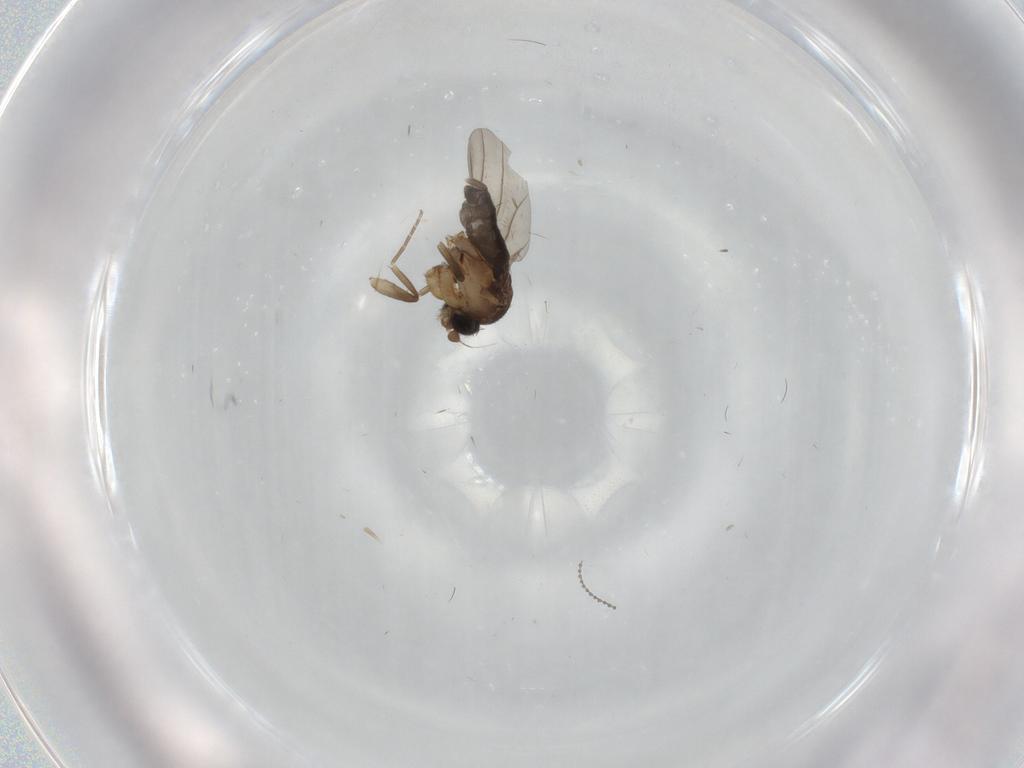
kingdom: Animalia
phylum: Arthropoda
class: Insecta
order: Diptera
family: Phoridae
